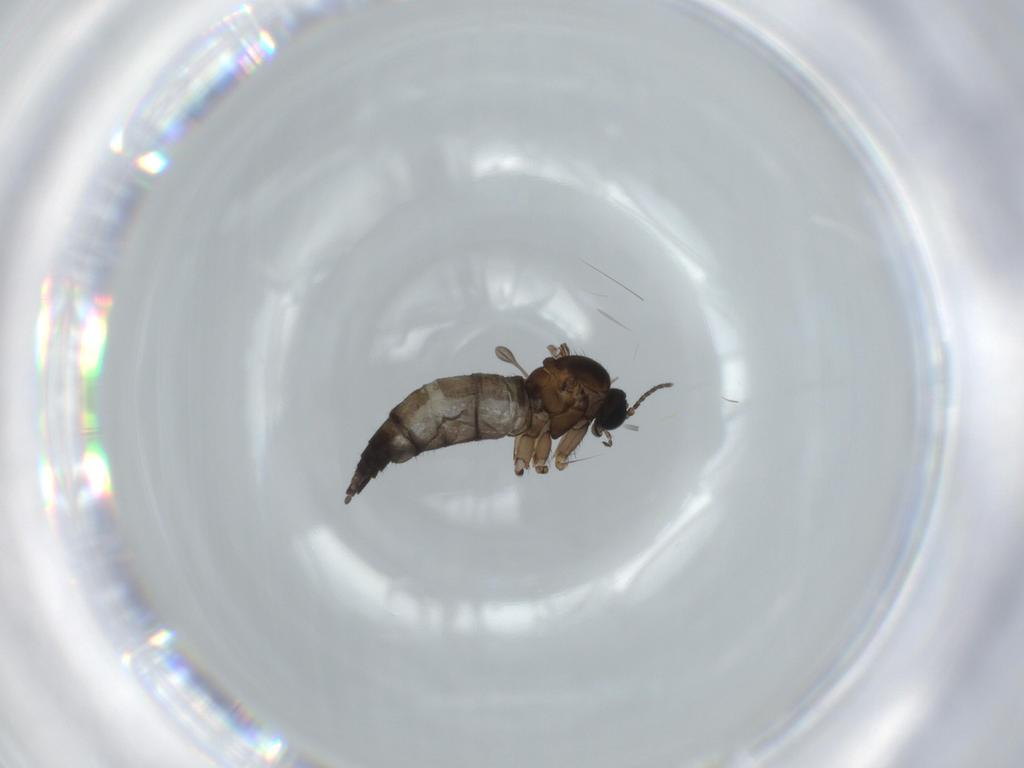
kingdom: Animalia
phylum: Arthropoda
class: Insecta
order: Diptera
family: Sciaridae
